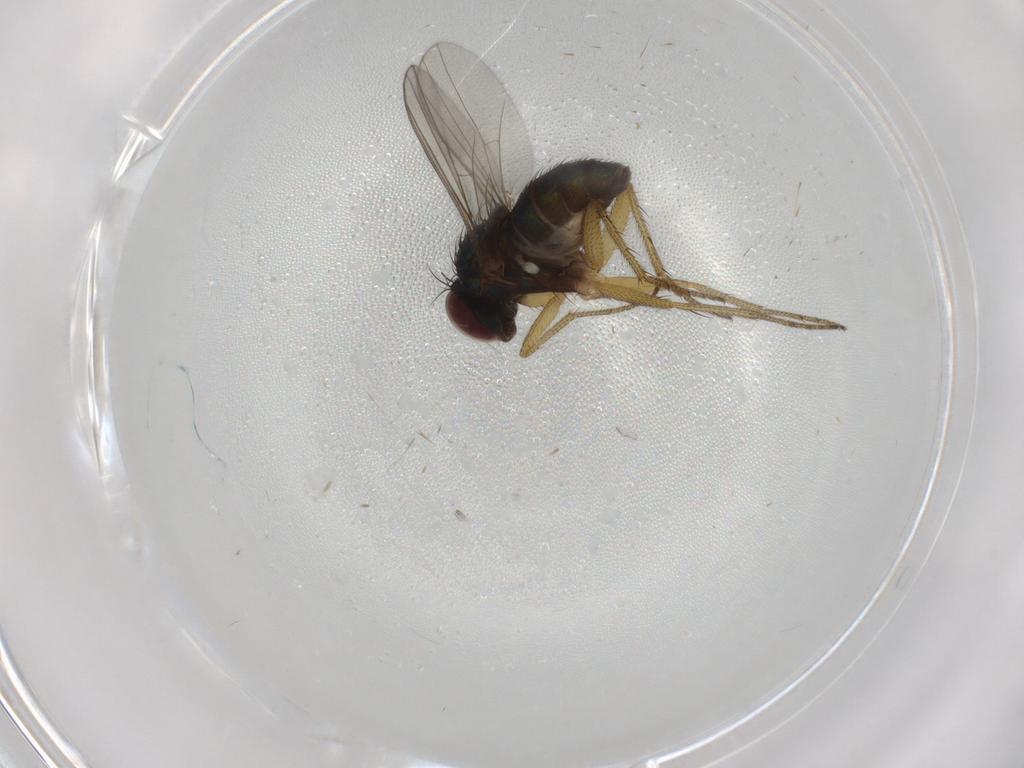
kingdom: Animalia
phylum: Arthropoda
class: Insecta
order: Diptera
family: Dolichopodidae
